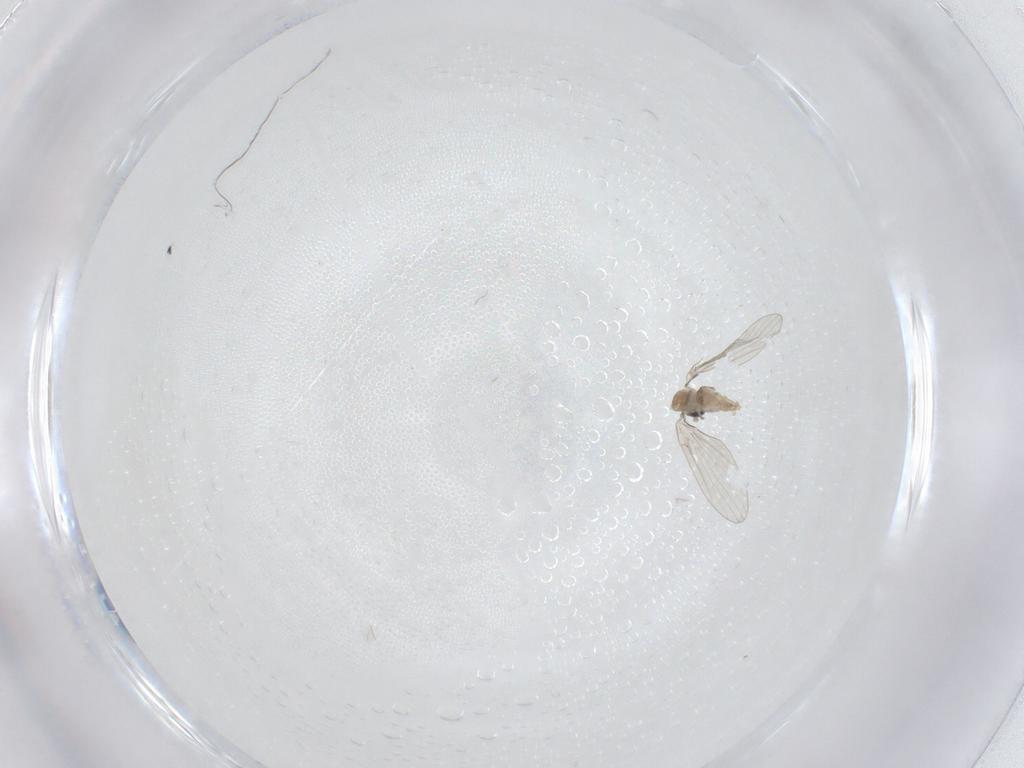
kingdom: Animalia
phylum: Arthropoda
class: Insecta
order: Diptera
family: Psychodidae
